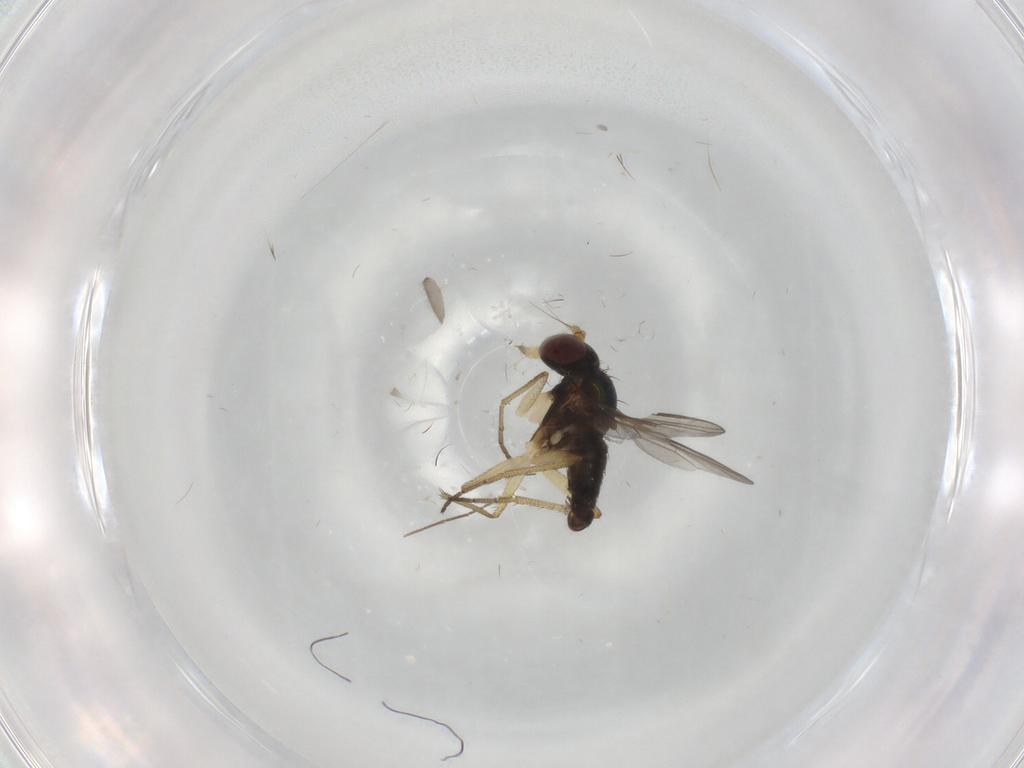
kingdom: Animalia
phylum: Arthropoda
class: Insecta
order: Diptera
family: Dolichopodidae
